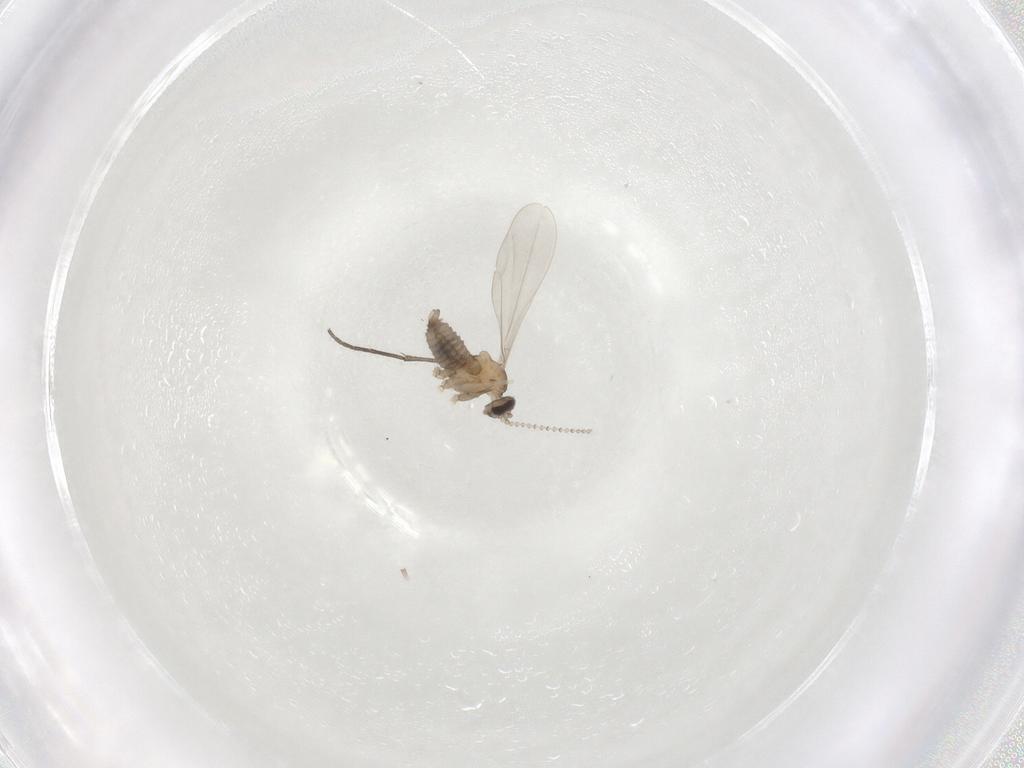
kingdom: Animalia
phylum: Arthropoda
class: Insecta
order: Diptera
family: Sciaridae
